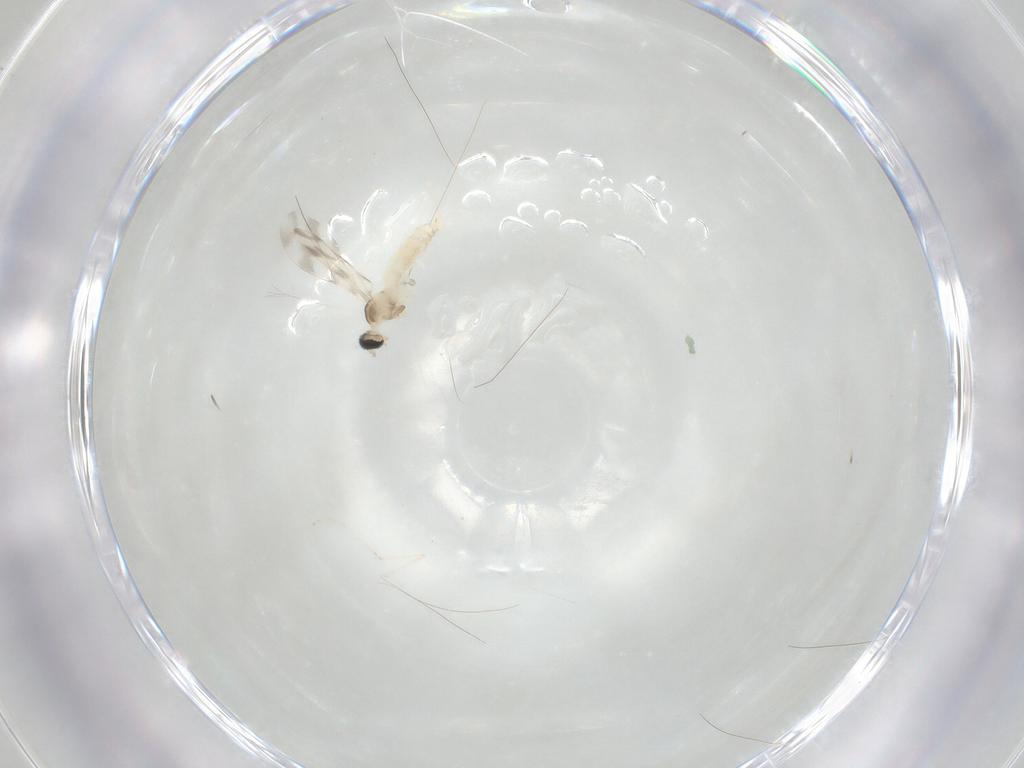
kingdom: Animalia
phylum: Arthropoda
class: Insecta
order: Diptera
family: Cecidomyiidae
